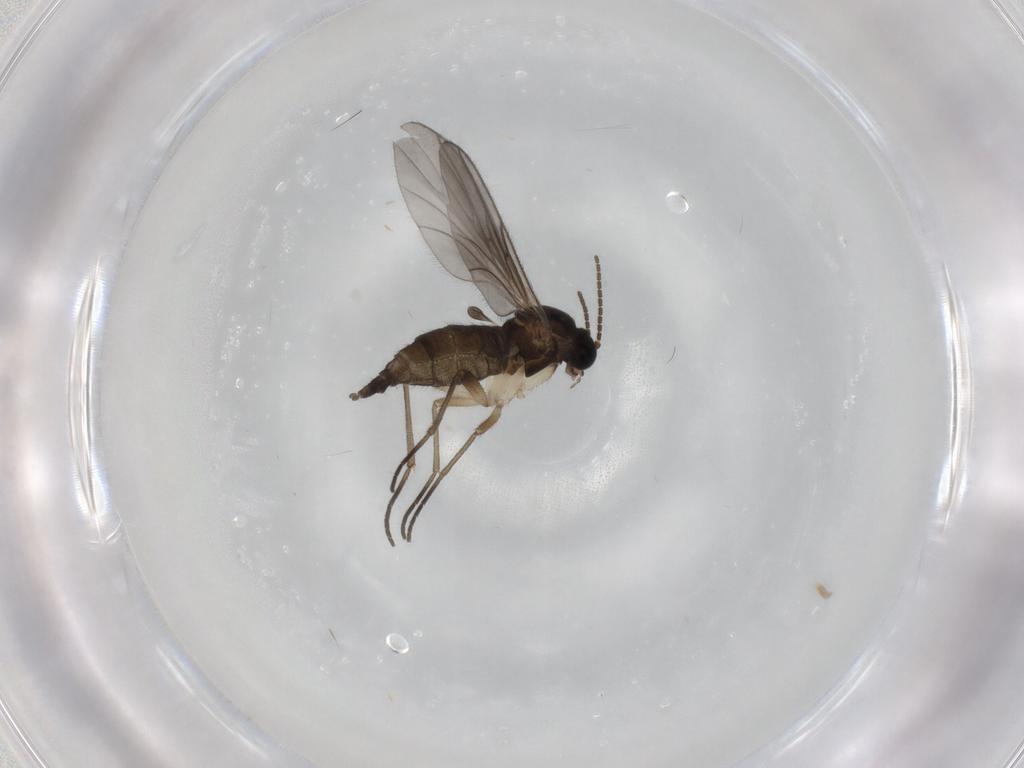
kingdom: Animalia
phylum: Arthropoda
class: Insecta
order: Diptera
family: Sciaridae
